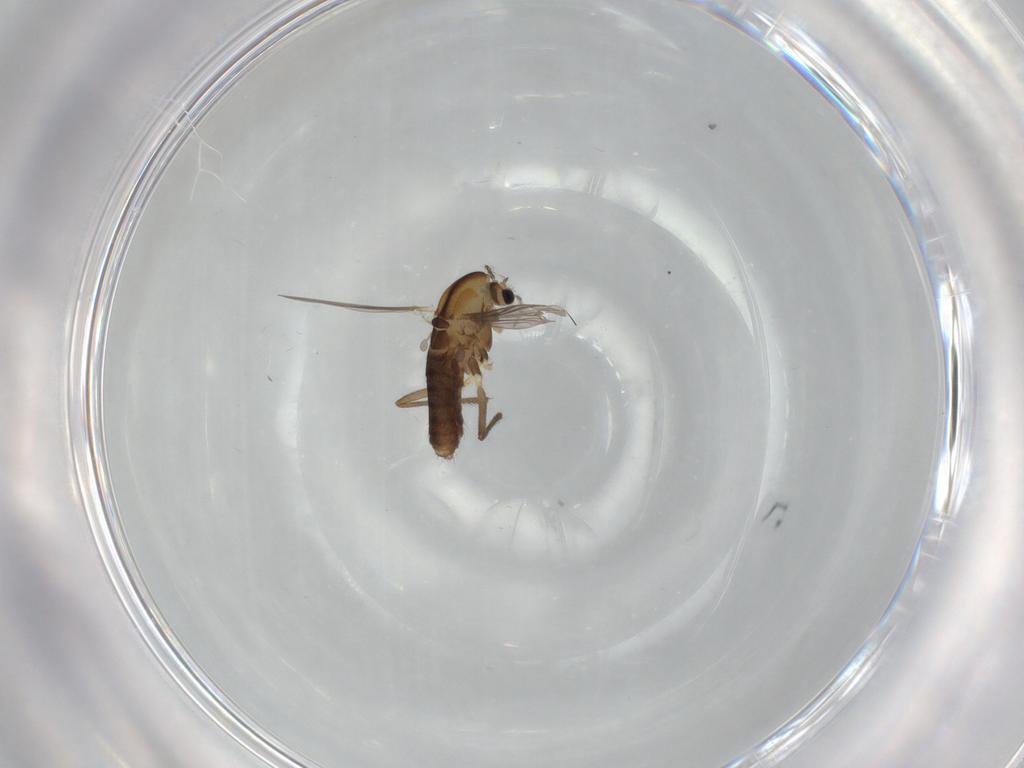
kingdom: Animalia
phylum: Arthropoda
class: Insecta
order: Diptera
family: Chironomidae
